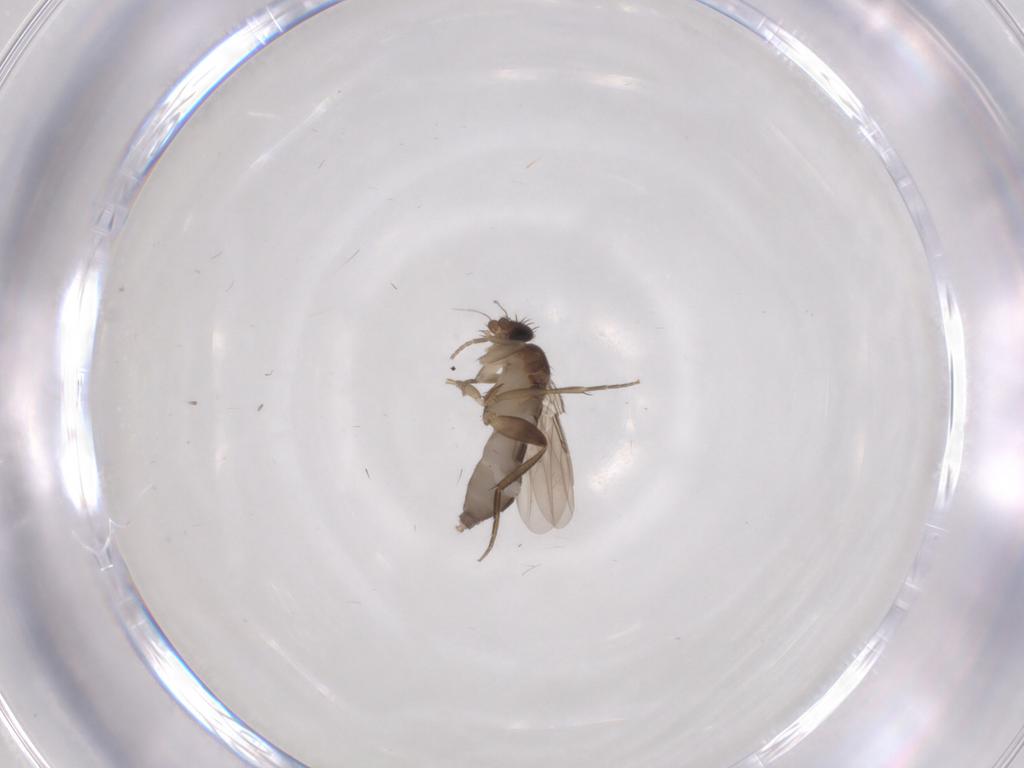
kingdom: Animalia
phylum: Arthropoda
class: Insecta
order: Diptera
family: Phoridae
